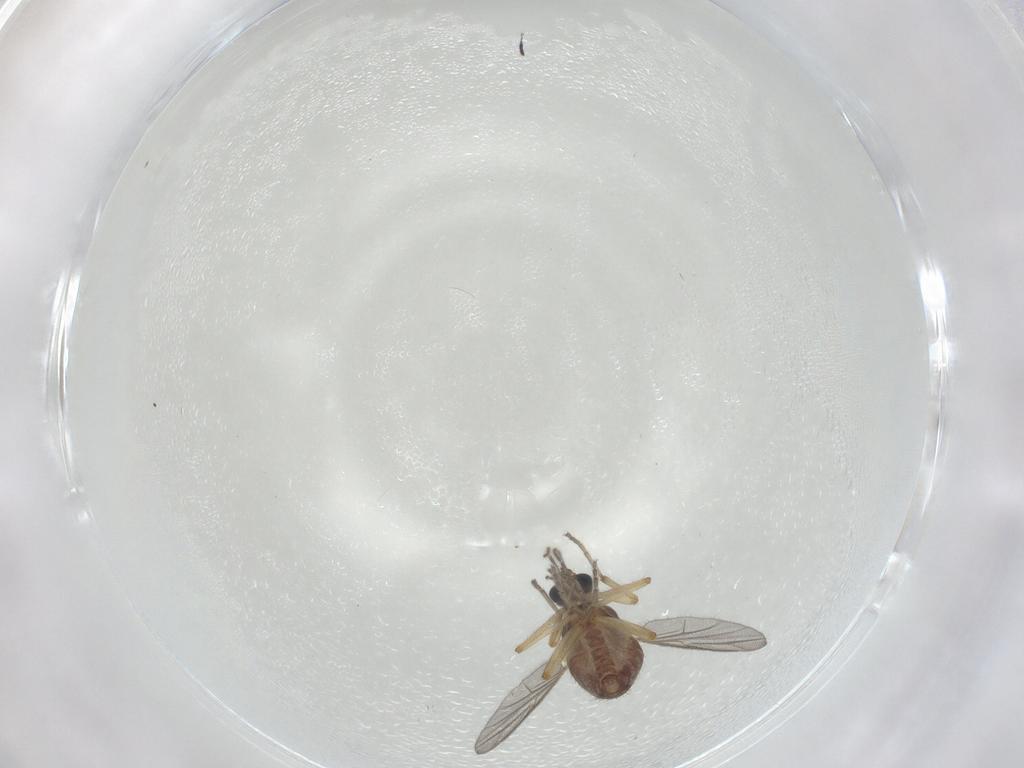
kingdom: Animalia
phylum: Arthropoda
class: Insecta
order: Diptera
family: Ceratopogonidae
